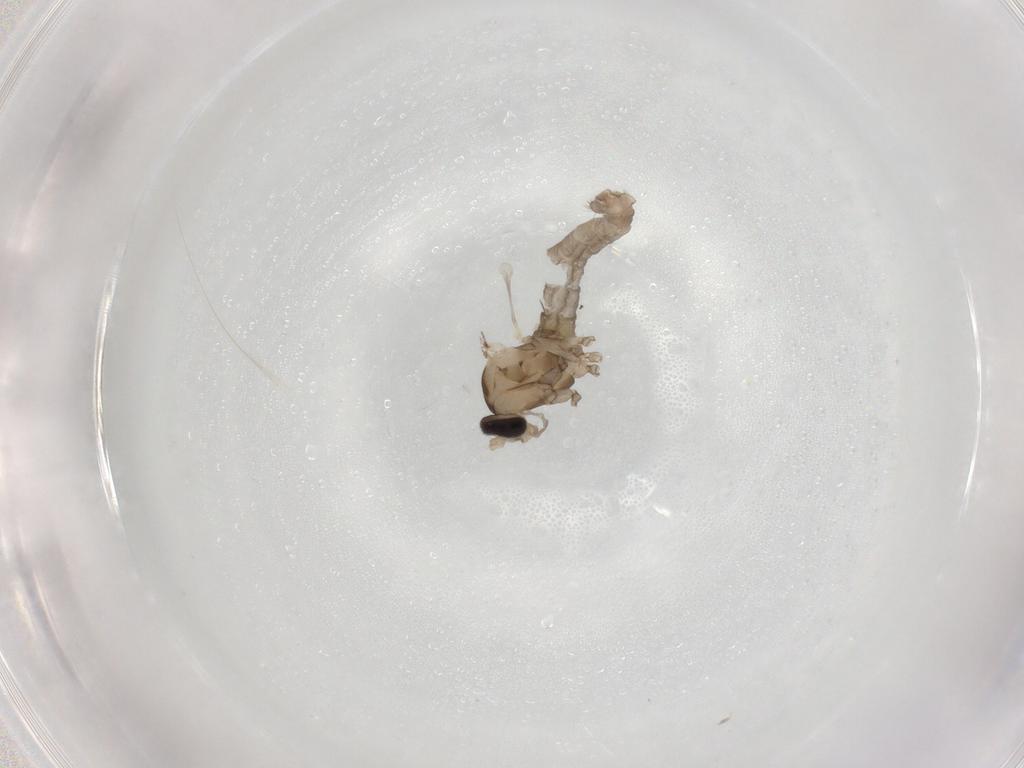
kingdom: Animalia
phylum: Arthropoda
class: Insecta
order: Diptera
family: Cecidomyiidae
